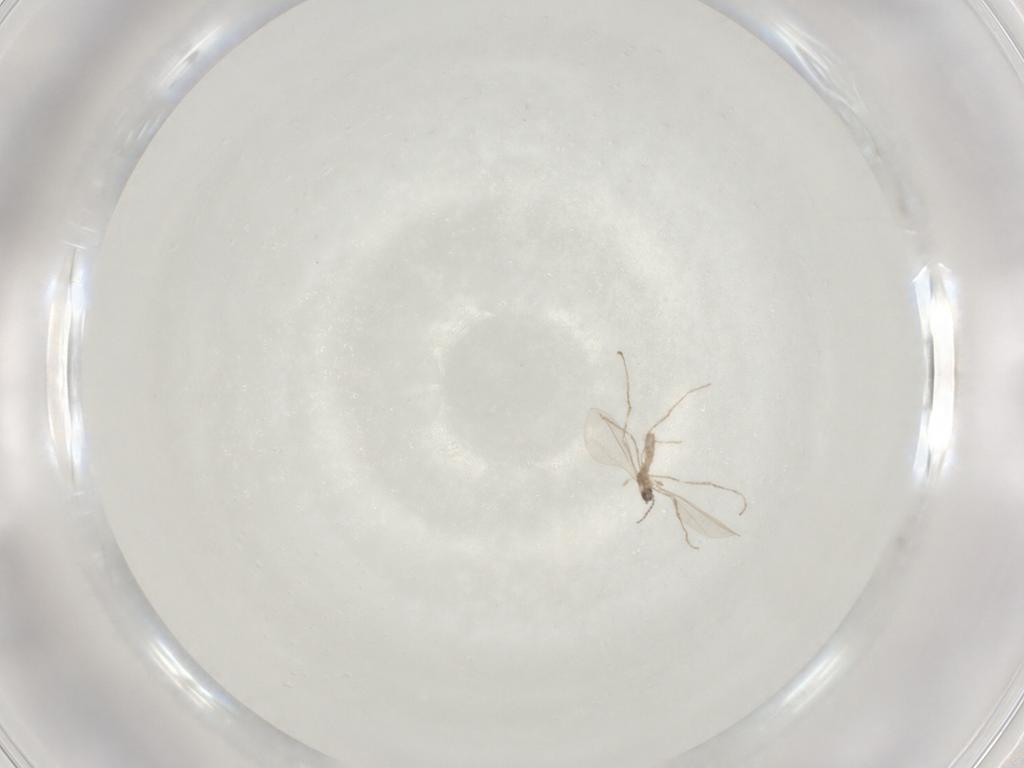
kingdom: Animalia
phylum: Arthropoda
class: Insecta
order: Diptera
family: Cecidomyiidae
